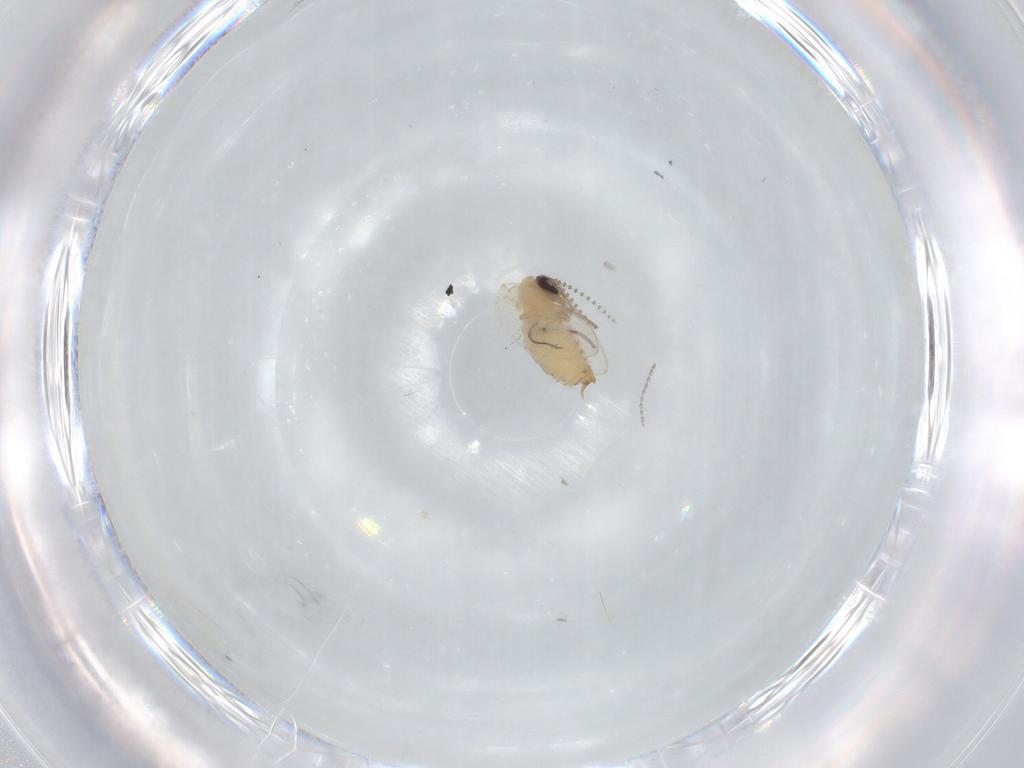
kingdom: Animalia
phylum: Arthropoda
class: Insecta
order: Diptera
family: Psychodidae
